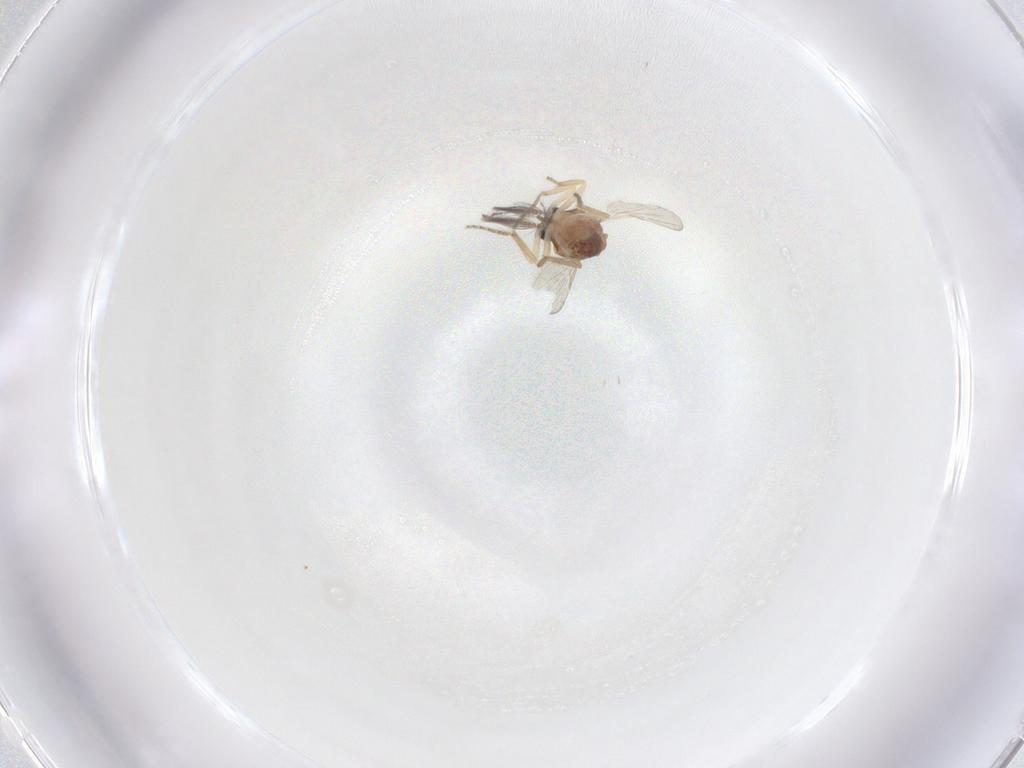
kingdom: Animalia
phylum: Arthropoda
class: Insecta
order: Diptera
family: Ceratopogonidae
